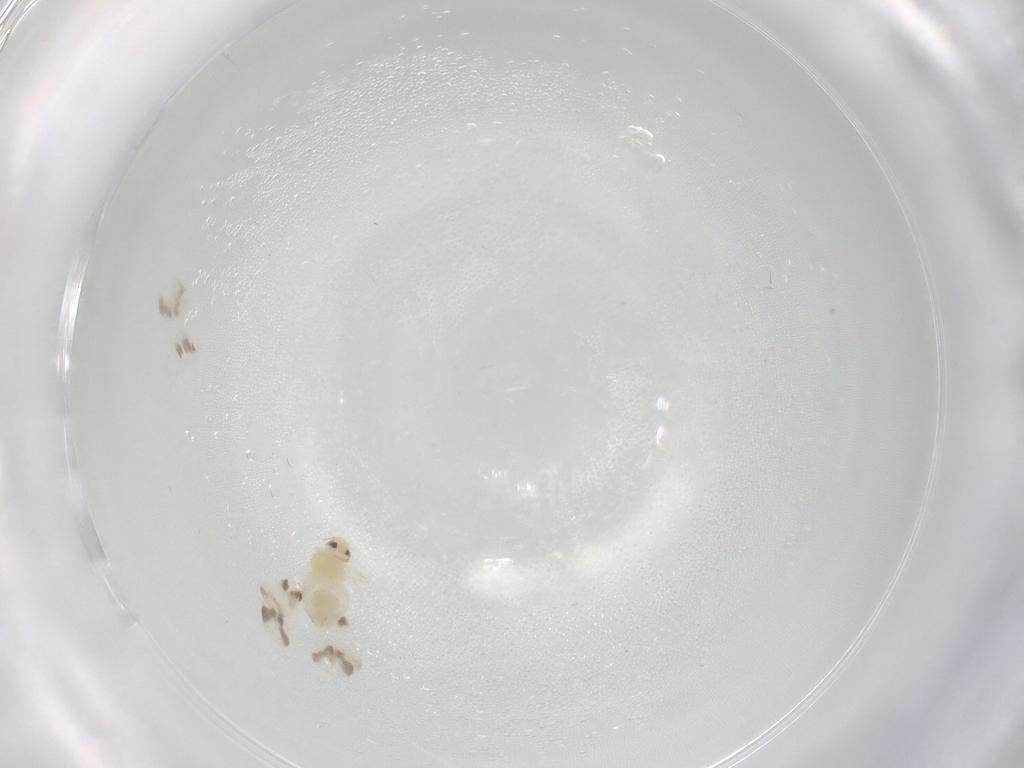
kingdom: Animalia
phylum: Arthropoda
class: Insecta
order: Hemiptera
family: Aleyrodidae
